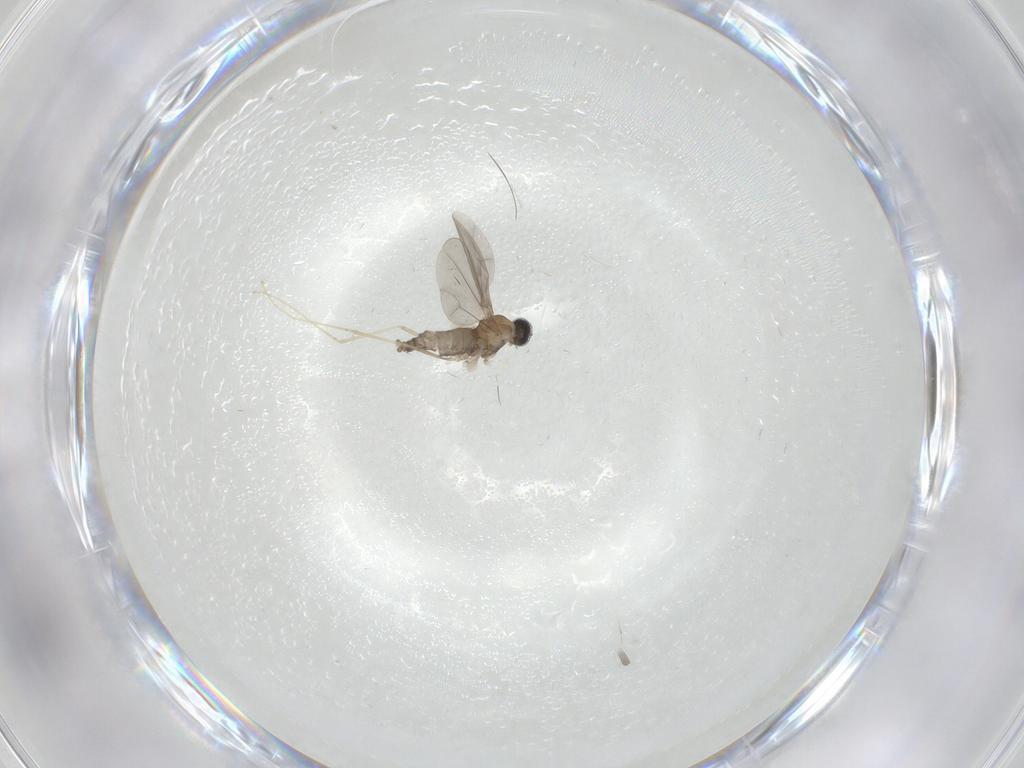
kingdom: Animalia
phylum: Arthropoda
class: Insecta
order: Diptera
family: Cecidomyiidae
